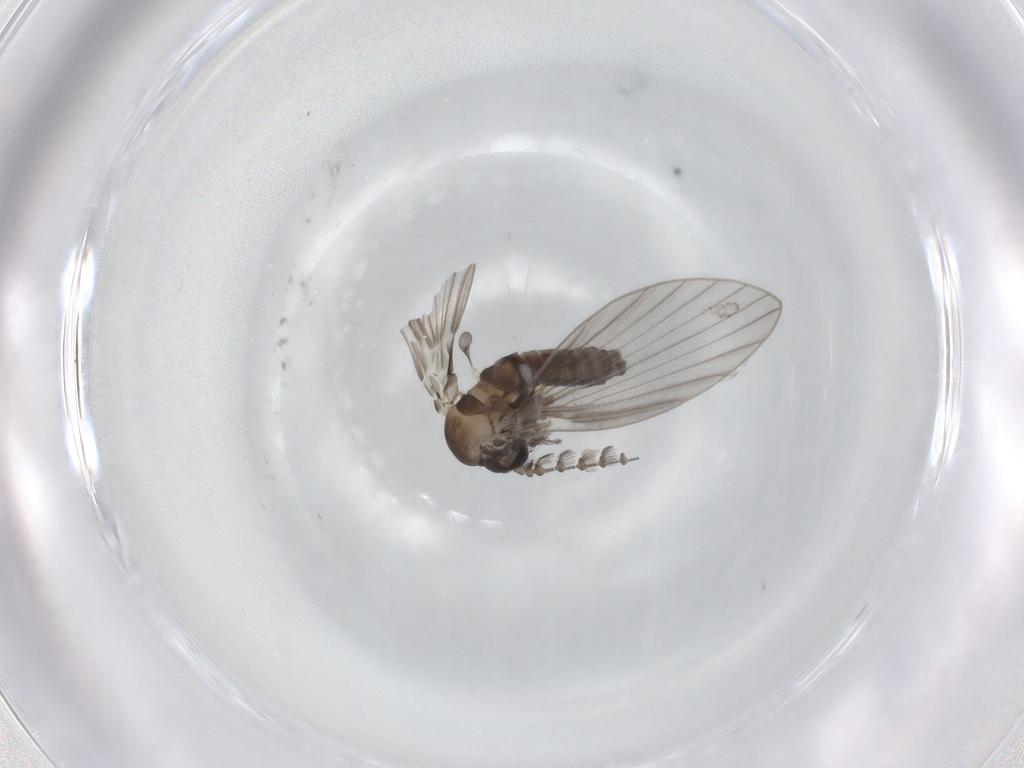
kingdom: Animalia
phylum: Arthropoda
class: Insecta
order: Diptera
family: Psychodidae
